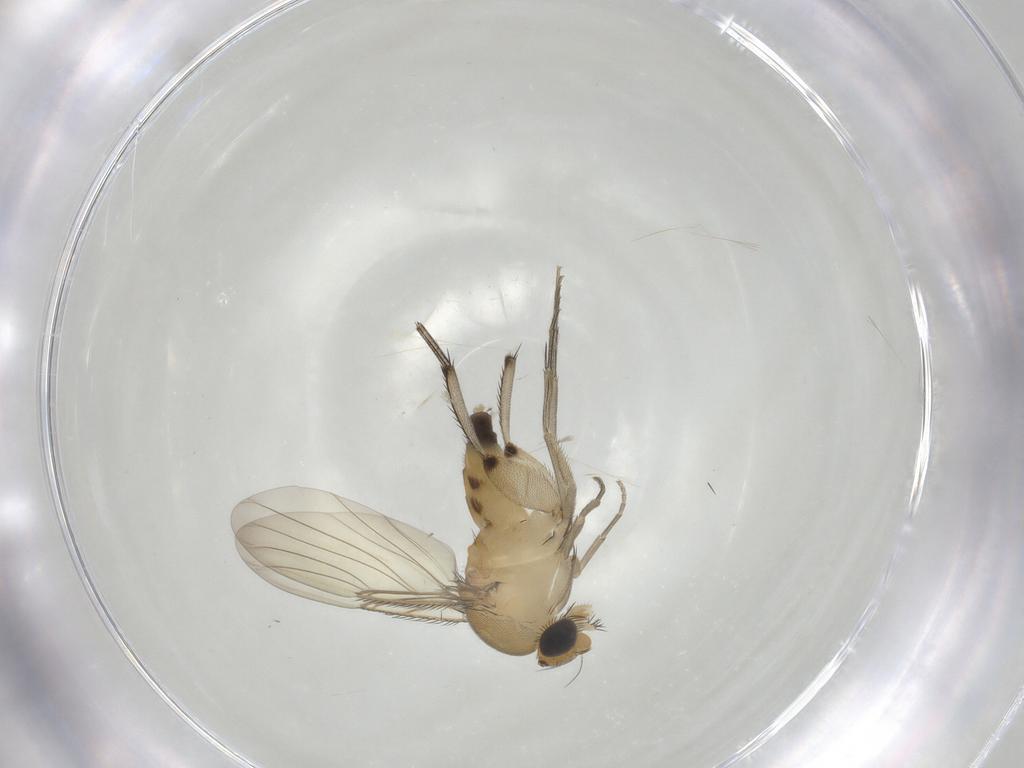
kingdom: Animalia
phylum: Arthropoda
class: Insecta
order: Diptera
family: Phoridae
